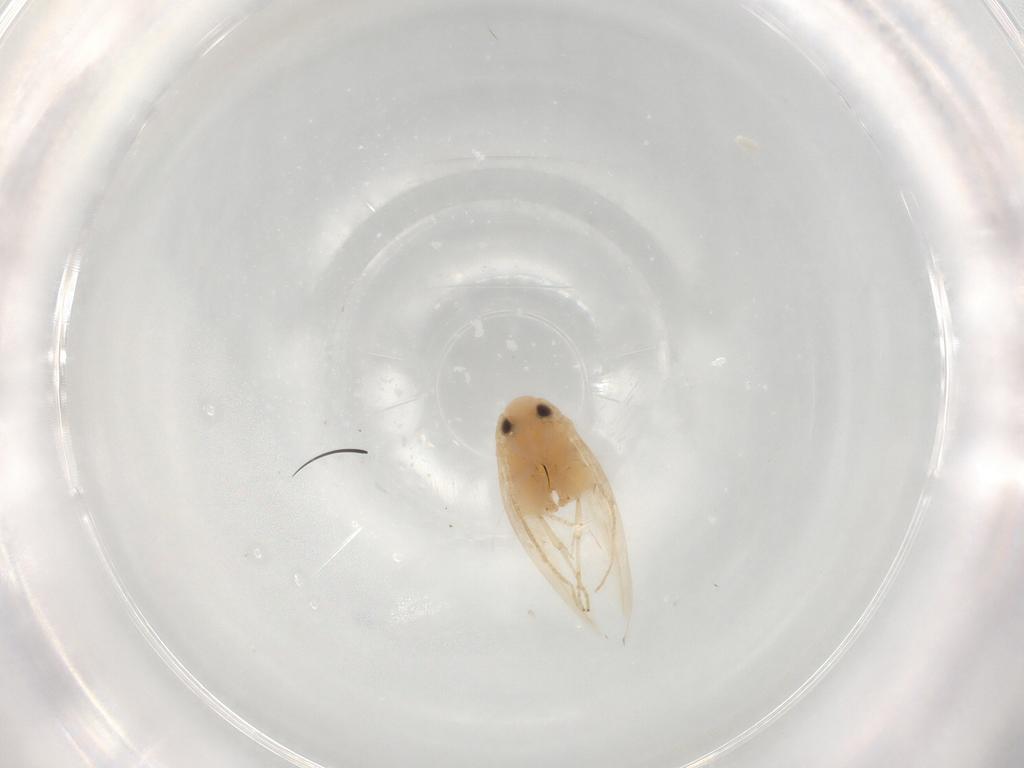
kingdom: Animalia
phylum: Arthropoda
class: Insecta
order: Lepidoptera
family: Gracillariidae
